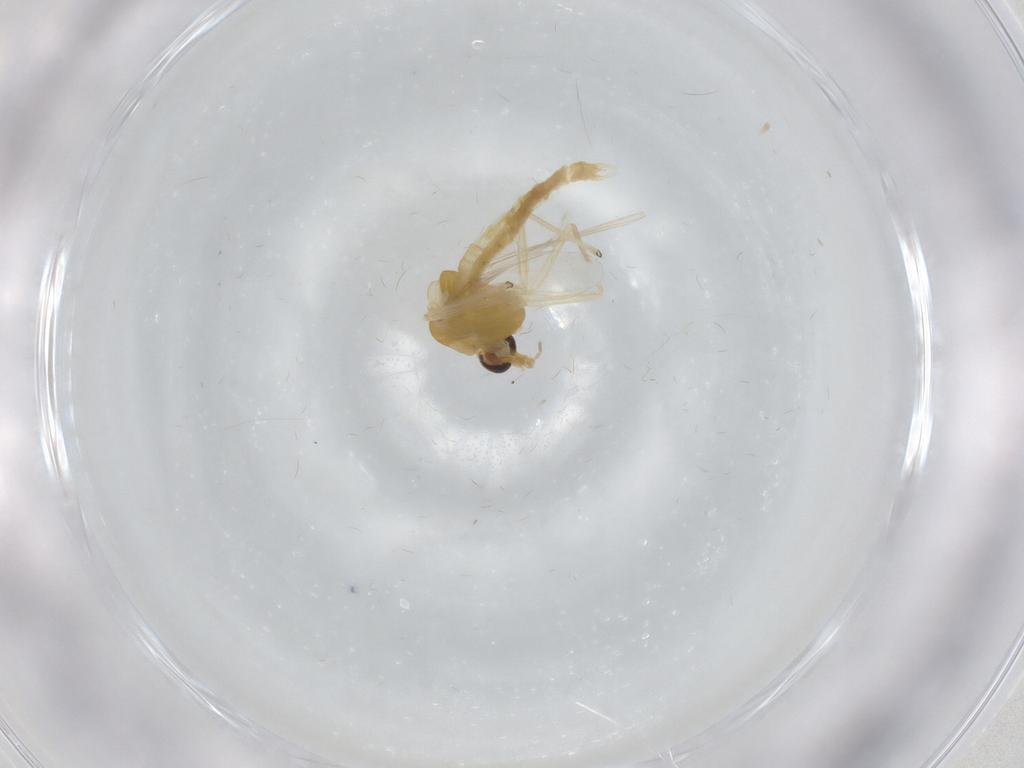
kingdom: Animalia
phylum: Arthropoda
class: Insecta
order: Diptera
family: Chironomidae
